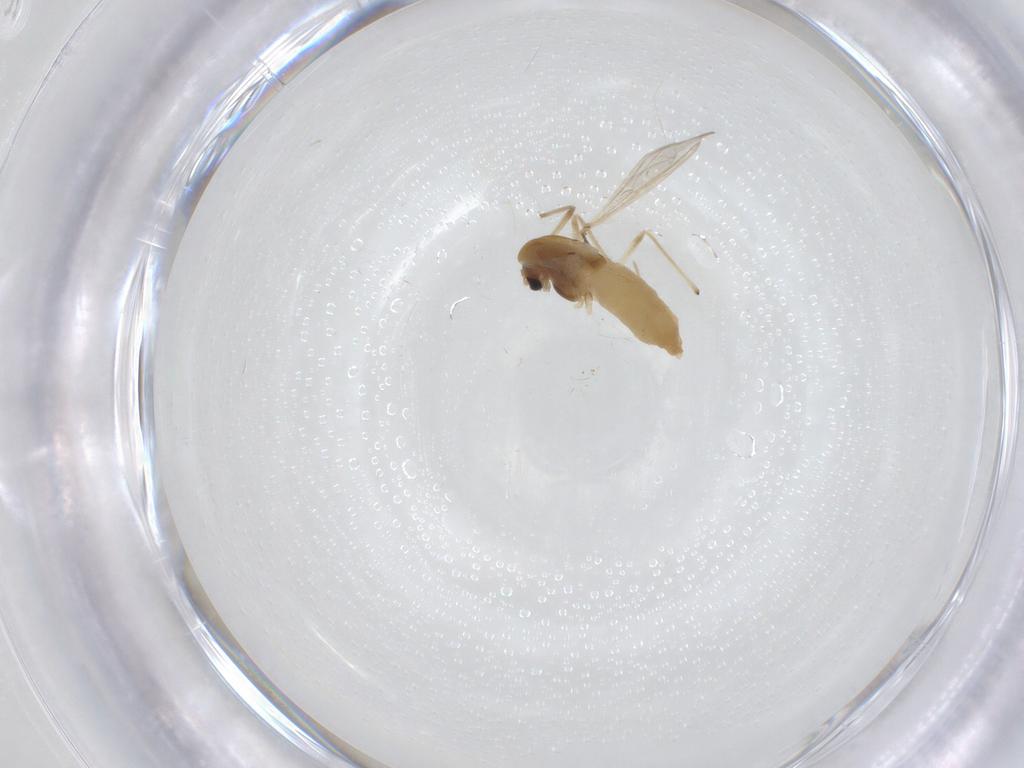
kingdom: Animalia
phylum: Arthropoda
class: Insecta
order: Diptera
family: Chironomidae
